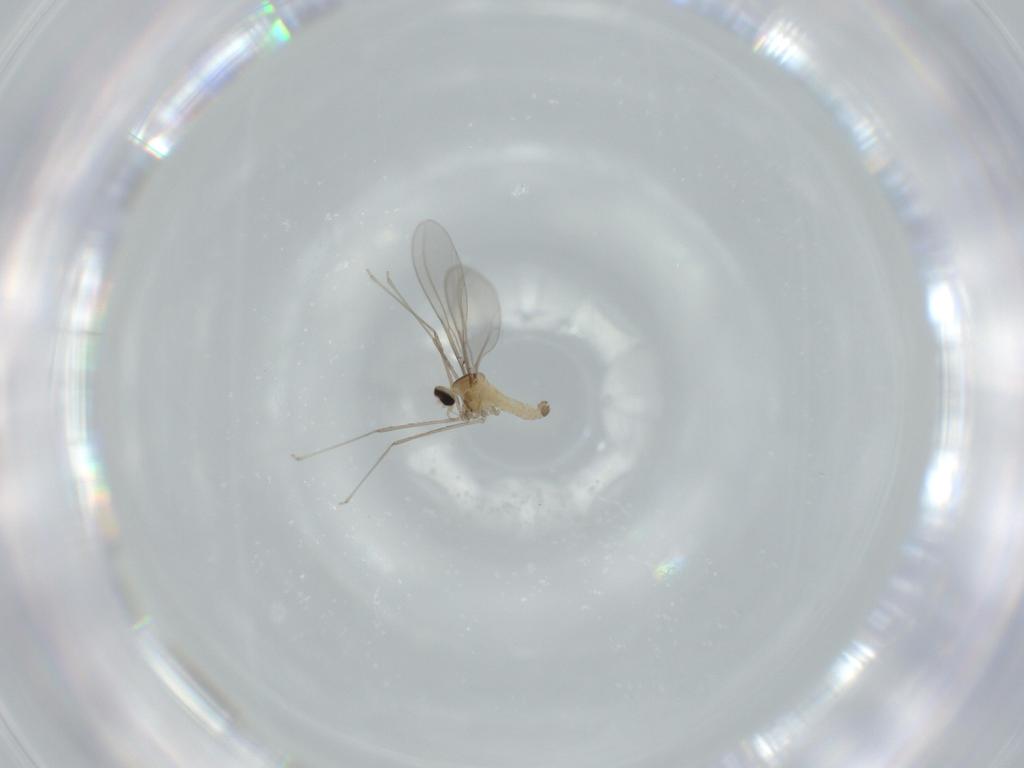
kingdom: Animalia
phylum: Arthropoda
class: Insecta
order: Diptera
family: Cecidomyiidae
